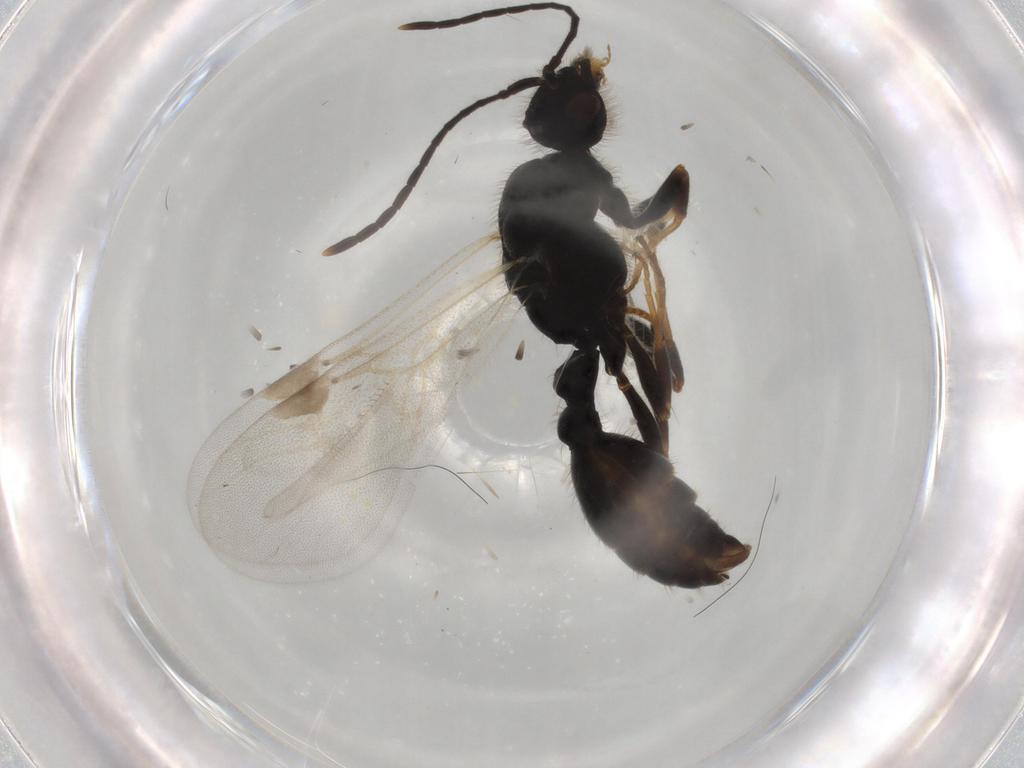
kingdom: Animalia
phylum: Arthropoda
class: Insecta
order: Hymenoptera
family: Formicidae
